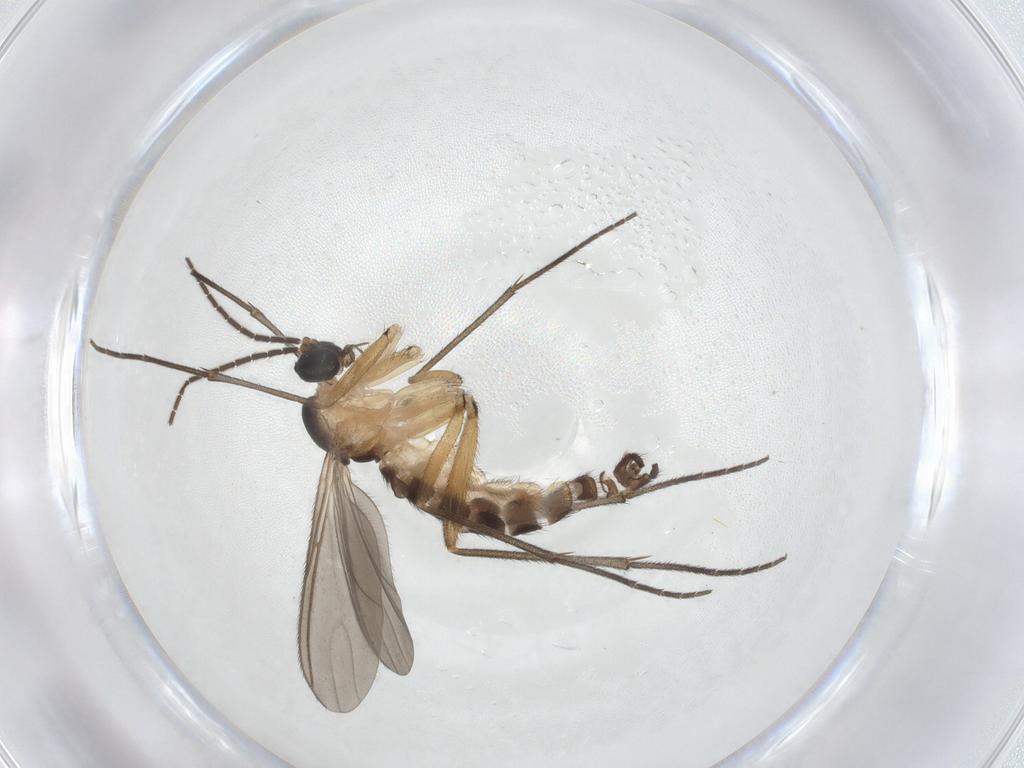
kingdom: Animalia
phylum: Arthropoda
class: Insecta
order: Diptera
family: Sciaridae
